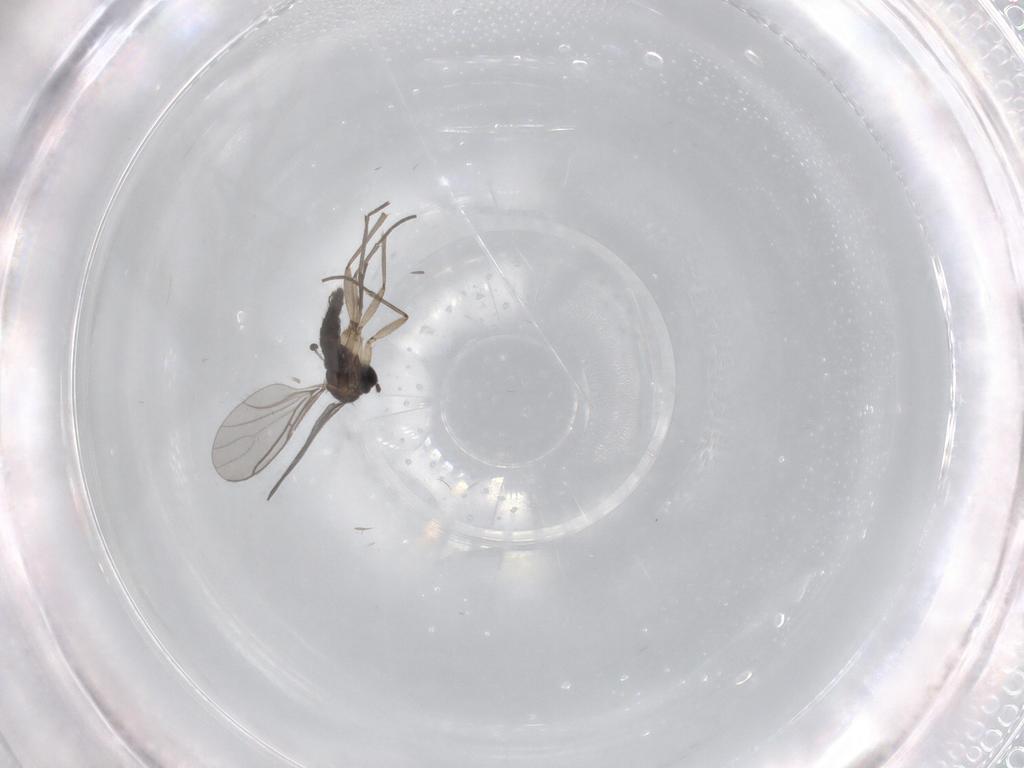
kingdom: Animalia
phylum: Arthropoda
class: Insecta
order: Diptera
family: Sciaridae
